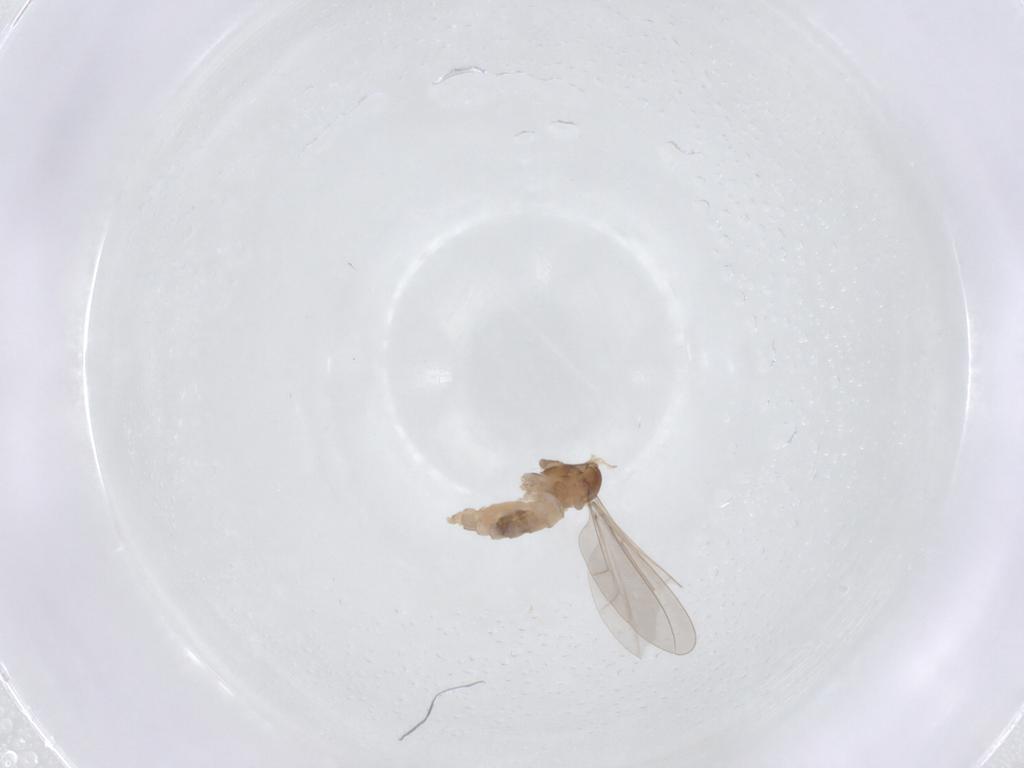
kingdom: Animalia
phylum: Arthropoda
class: Insecta
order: Diptera
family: Cecidomyiidae
